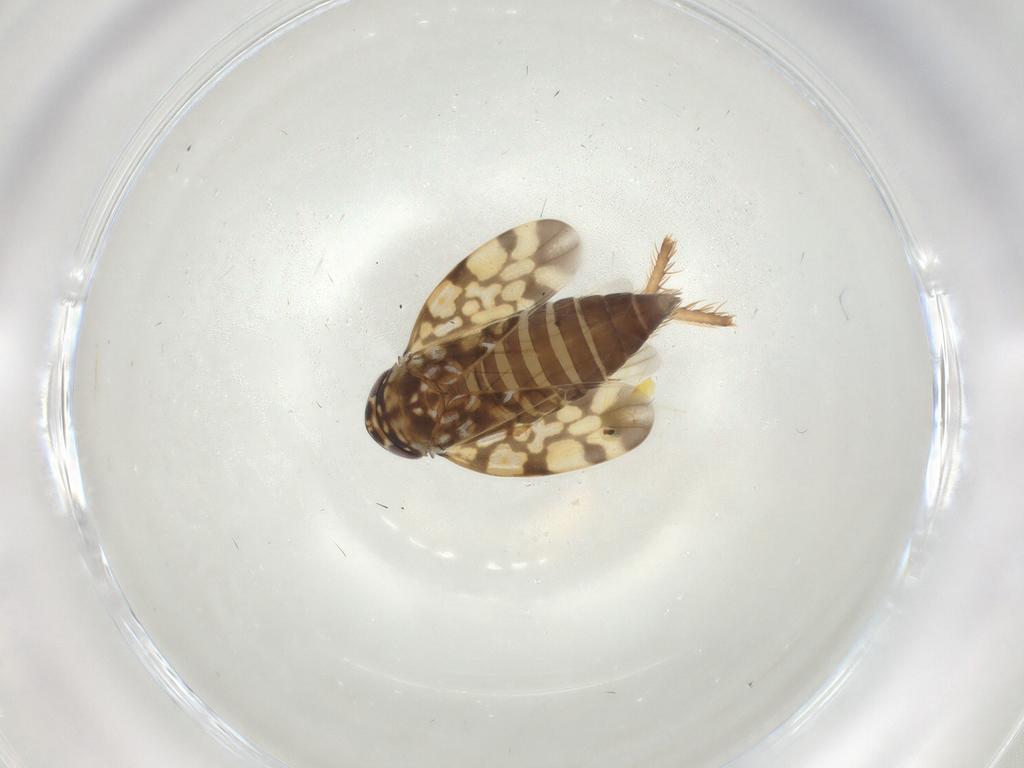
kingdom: Animalia
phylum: Arthropoda
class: Insecta
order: Hemiptera
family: Cicadellidae
